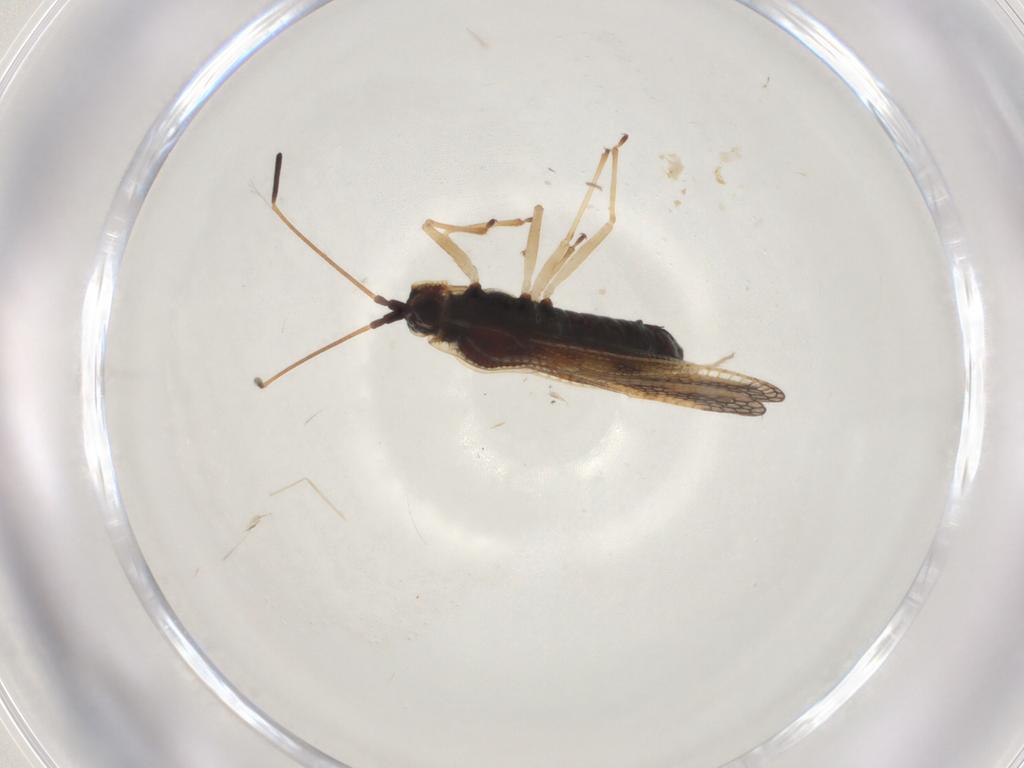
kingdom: Animalia
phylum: Arthropoda
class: Insecta
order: Hemiptera
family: Tingidae
